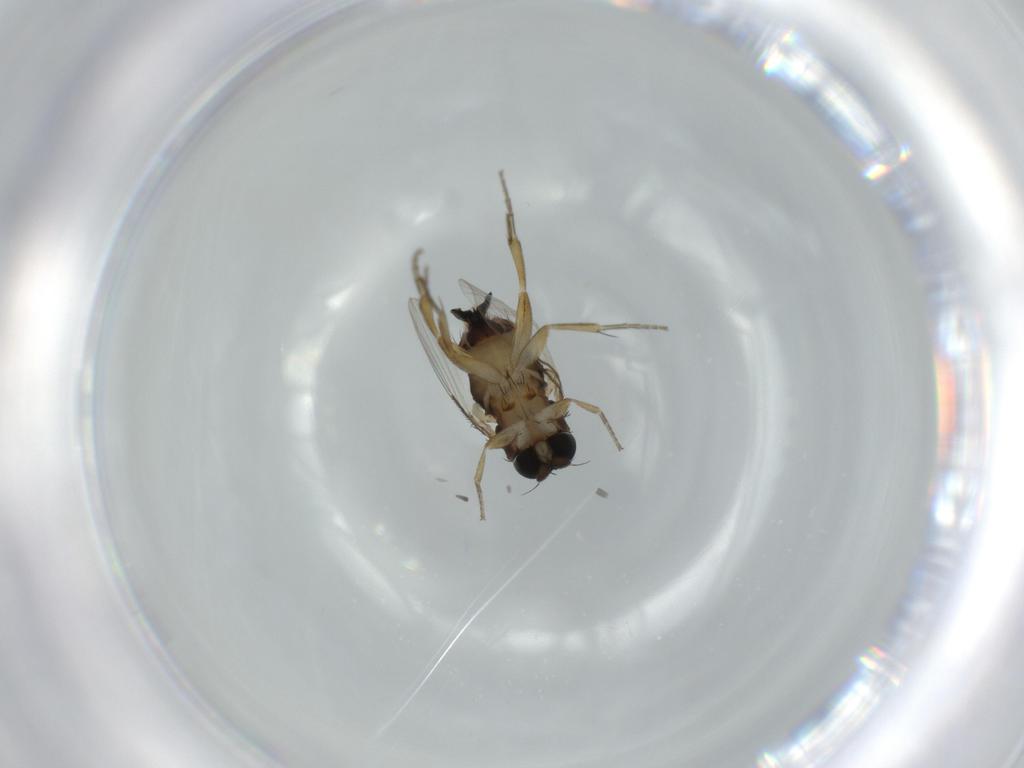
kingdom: Animalia
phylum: Arthropoda
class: Insecta
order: Diptera
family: Phoridae
